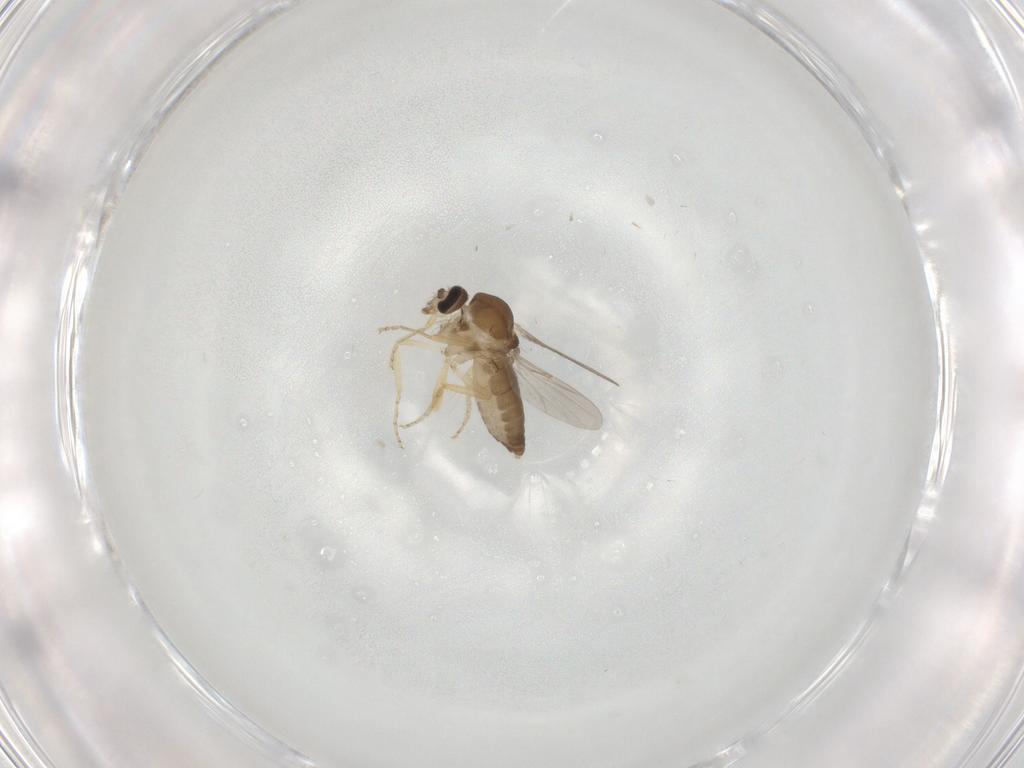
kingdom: Animalia
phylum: Arthropoda
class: Insecta
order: Diptera
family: Ceratopogonidae
